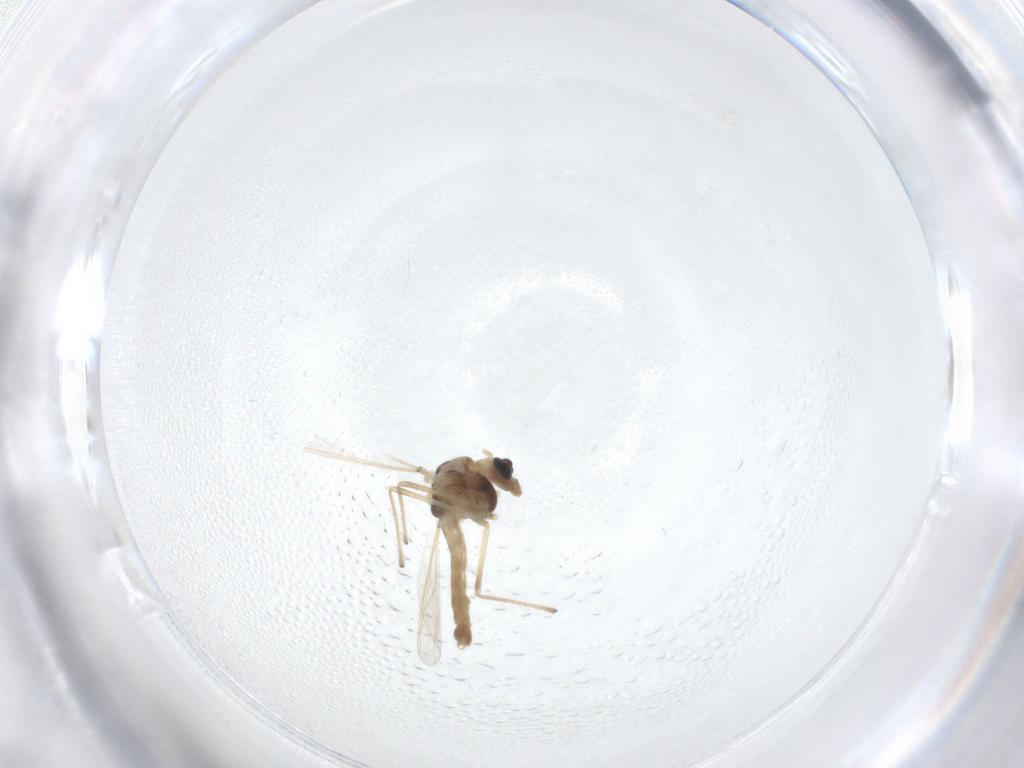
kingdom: Animalia
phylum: Arthropoda
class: Insecta
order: Diptera
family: Chironomidae
